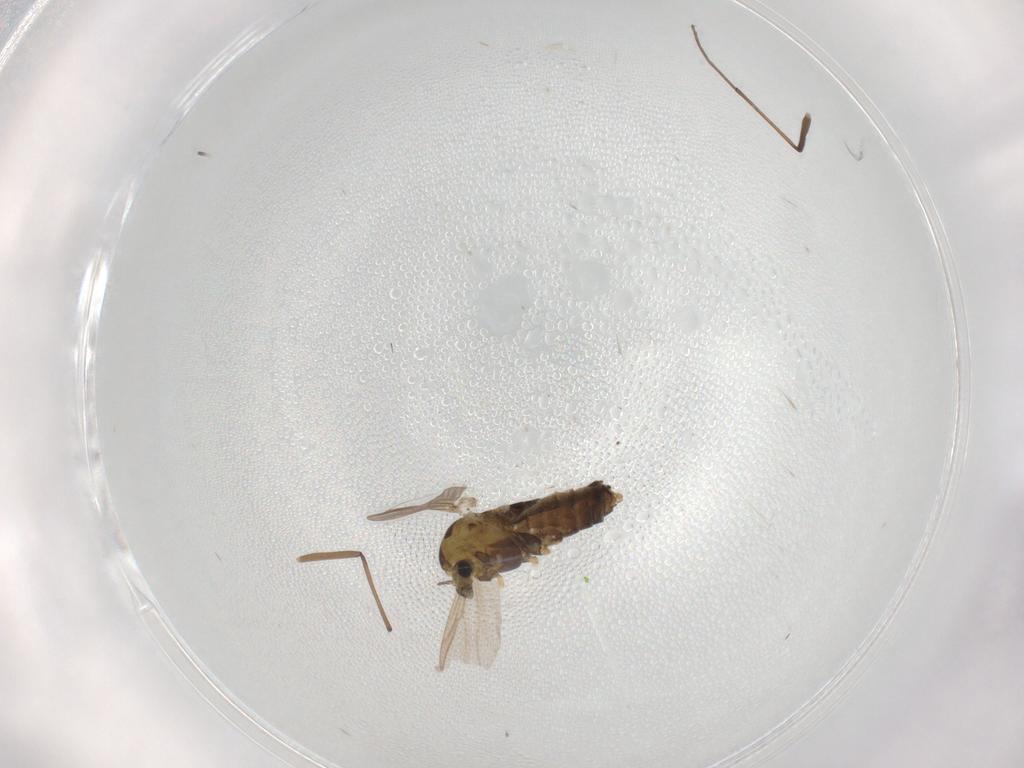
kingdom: Animalia
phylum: Arthropoda
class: Insecta
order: Diptera
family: Chironomidae
